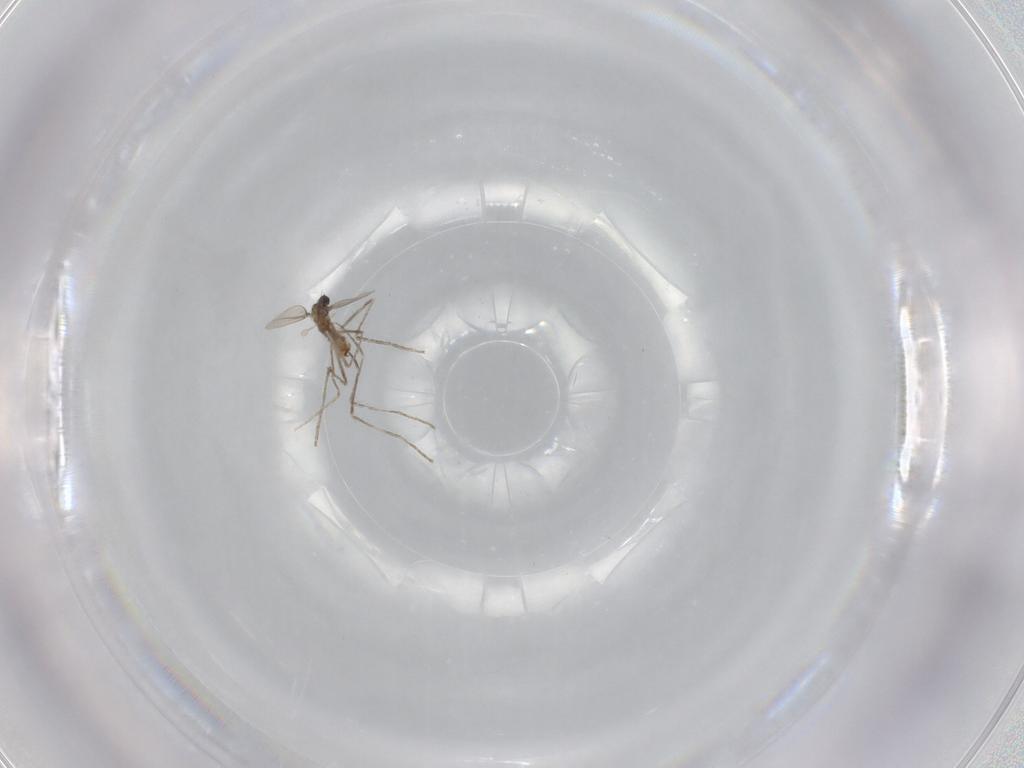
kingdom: Animalia
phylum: Arthropoda
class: Insecta
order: Diptera
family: Cecidomyiidae
